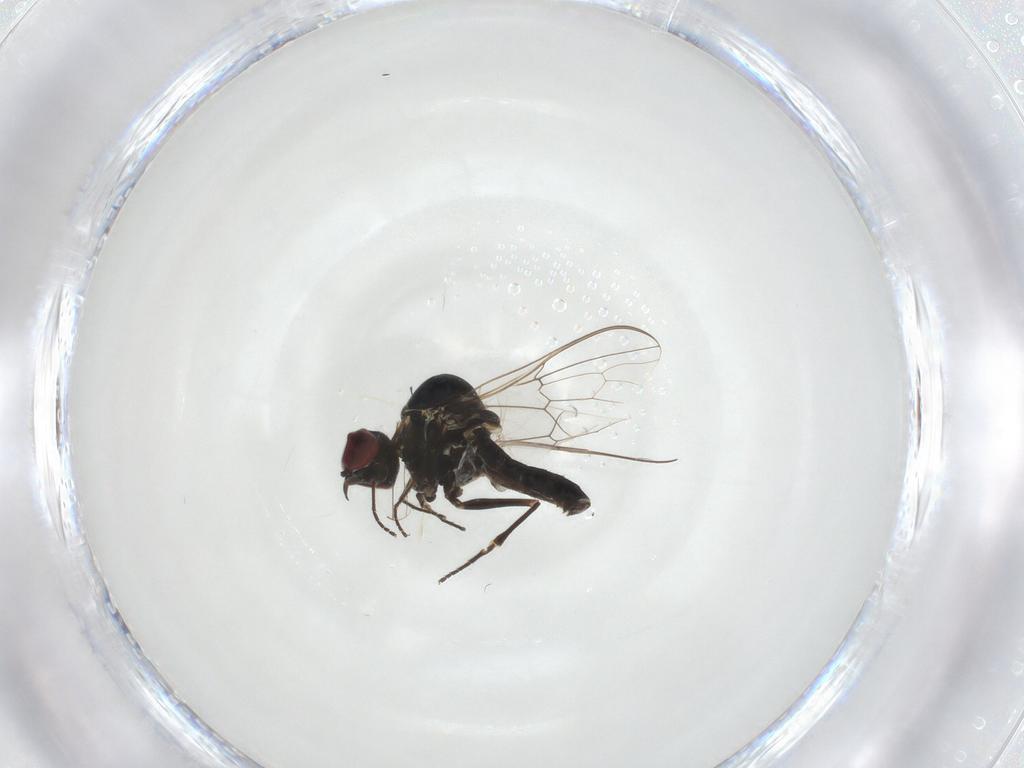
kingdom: Animalia
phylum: Arthropoda
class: Insecta
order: Diptera
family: Bombyliidae
